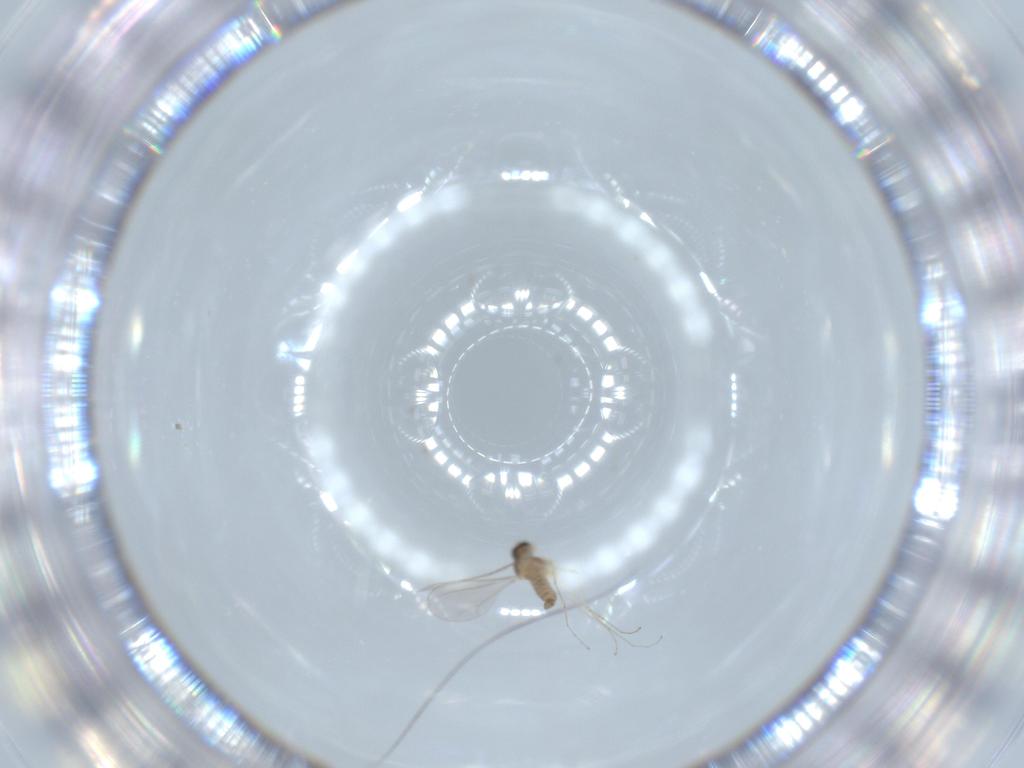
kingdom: Animalia
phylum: Arthropoda
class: Insecta
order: Diptera
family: Cecidomyiidae
